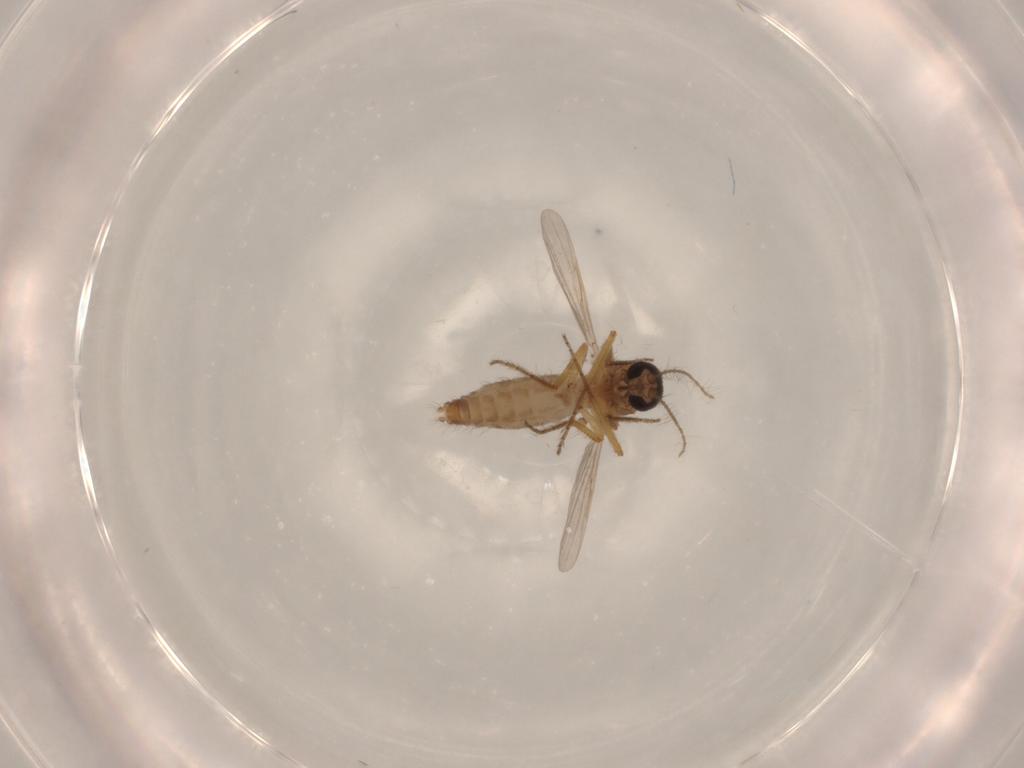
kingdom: Animalia
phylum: Arthropoda
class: Insecta
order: Diptera
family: Ceratopogonidae
